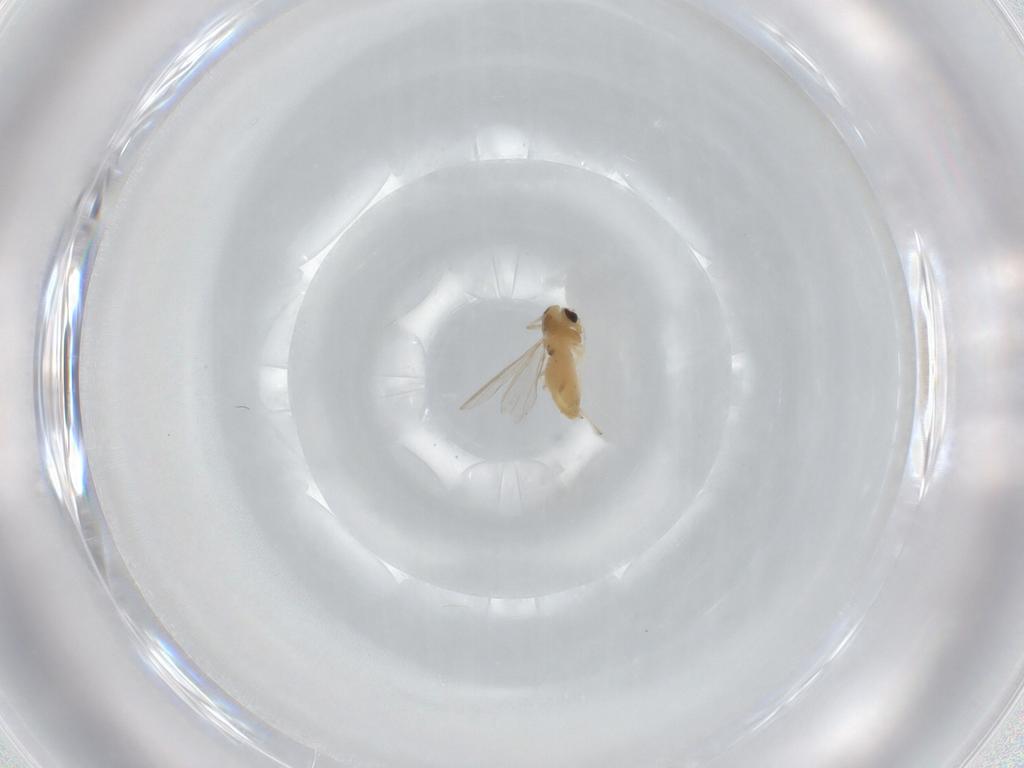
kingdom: Animalia
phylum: Arthropoda
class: Insecta
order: Diptera
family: Chironomidae
